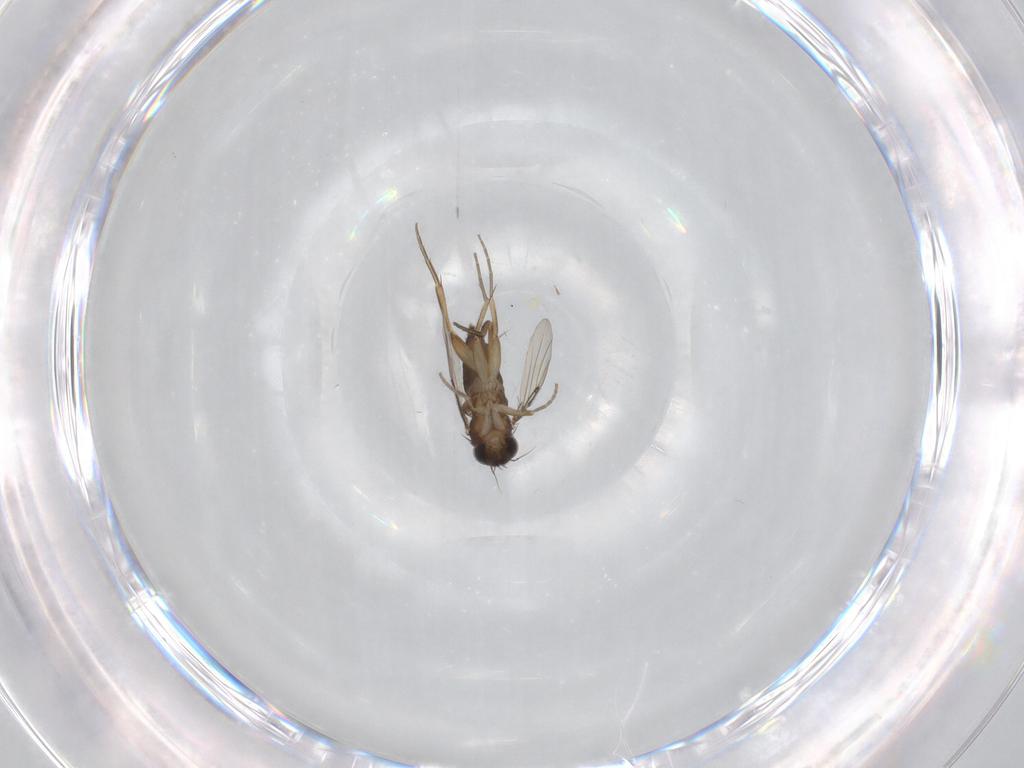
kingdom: Animalia
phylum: Arthropoda
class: Insecta
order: Diptera
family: Phoridae
